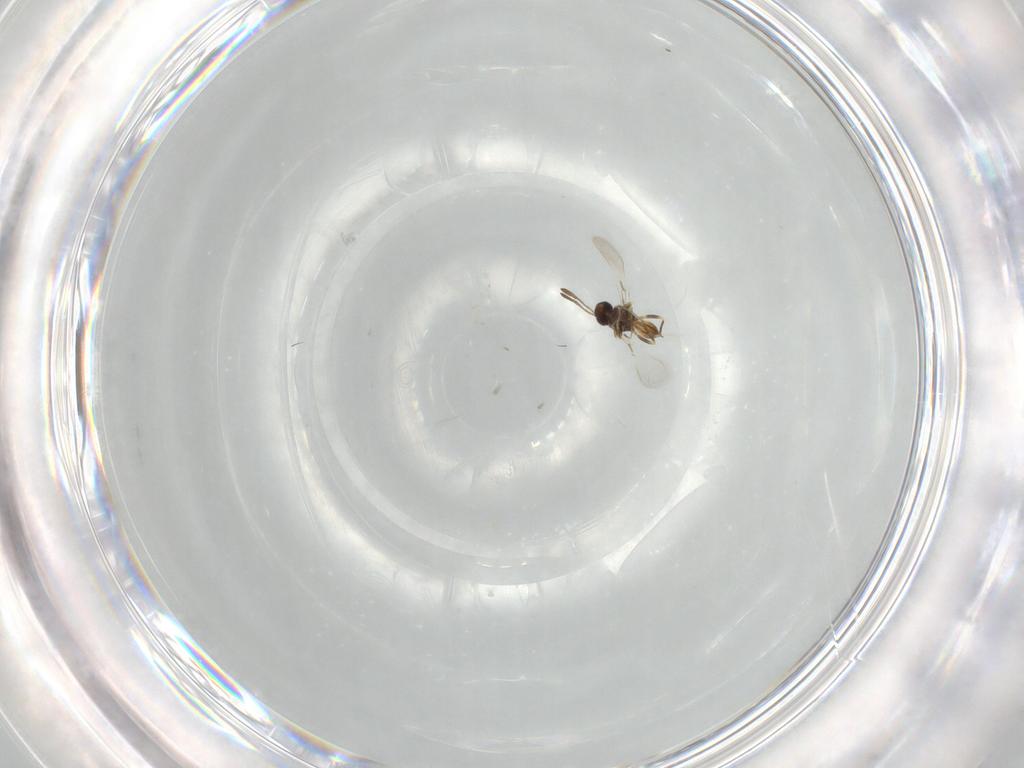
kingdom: Animalia
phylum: Arthropoda
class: Insecta
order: Hymenoptera
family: Mymaridae
